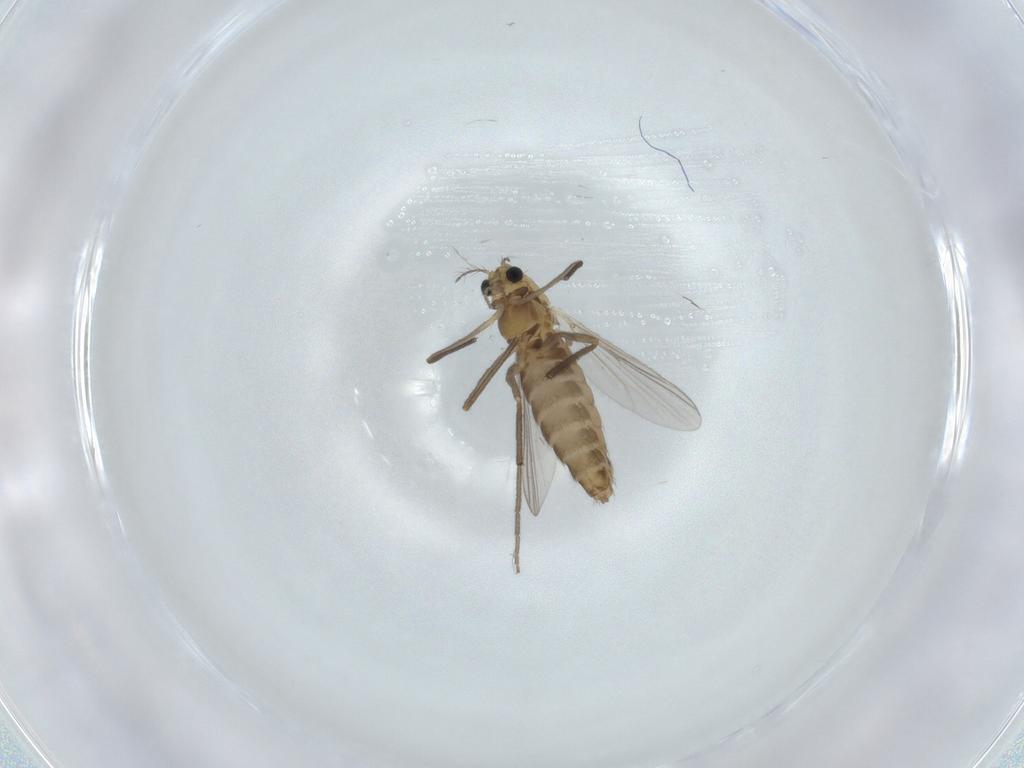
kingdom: Animalia
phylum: Arthropoda
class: Insecta
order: Diptera
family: Chironomidae
